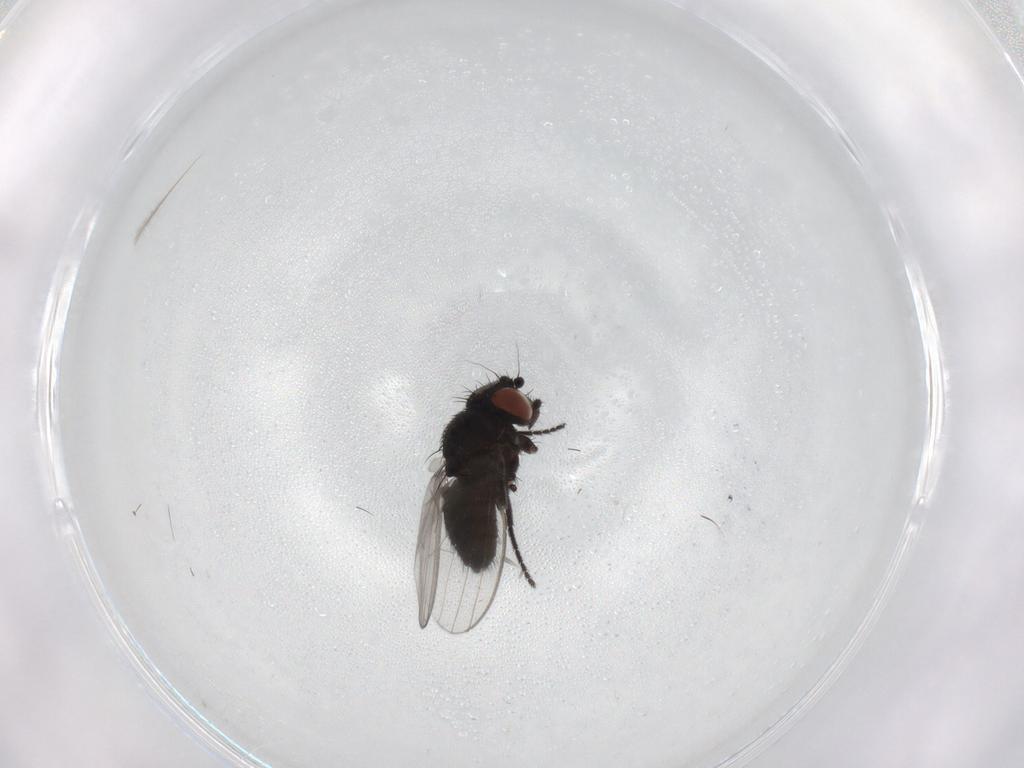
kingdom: Animalia
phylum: Arthropoda
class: Insecta
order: Diptera
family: Milichiidae
